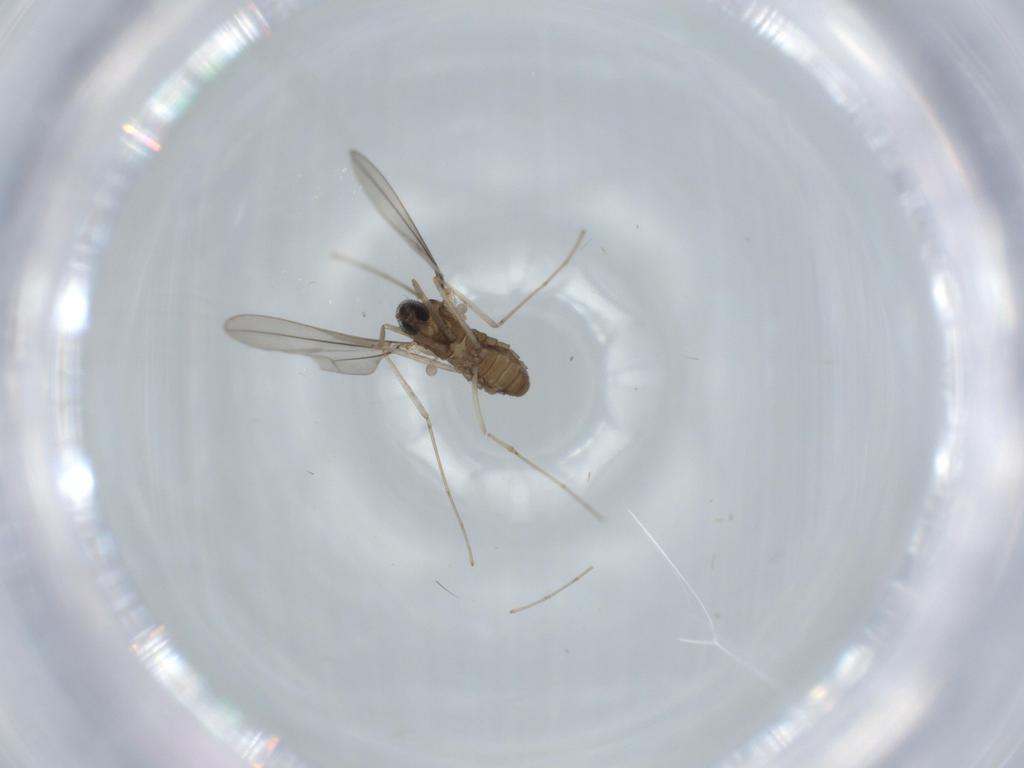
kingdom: Animalia
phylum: Arthropoda
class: Insecta
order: Diptera
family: Cecidomyiidae
